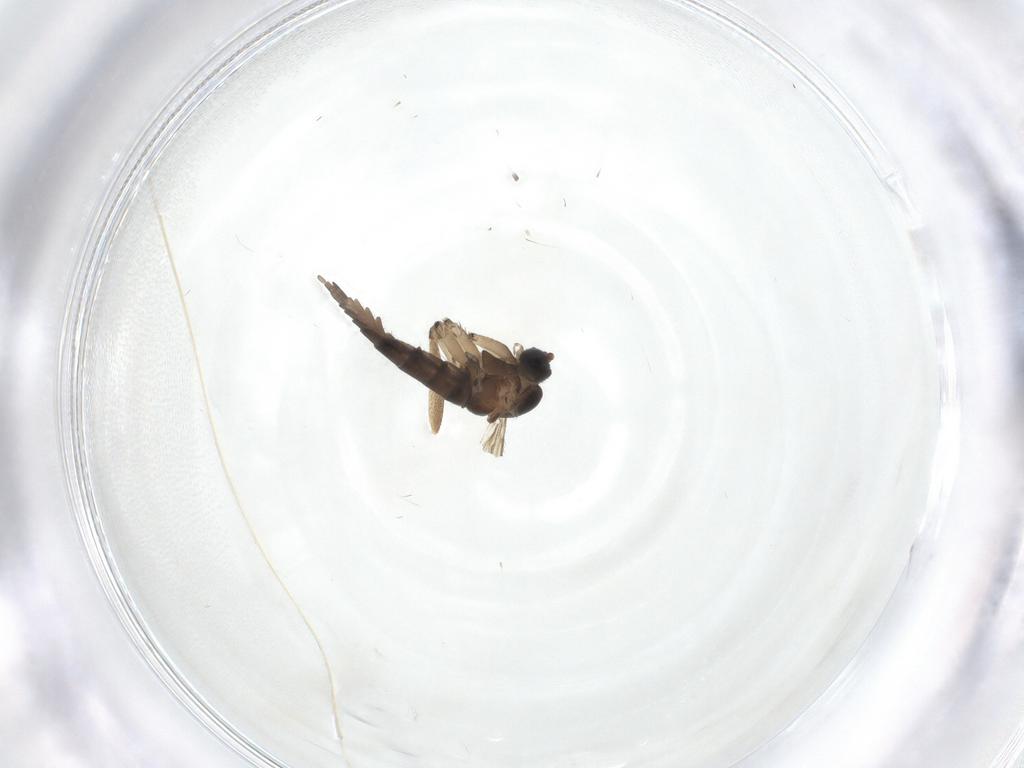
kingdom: Animalia
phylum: Arthropoda
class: Insecta
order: Diptera
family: Sciaridae
